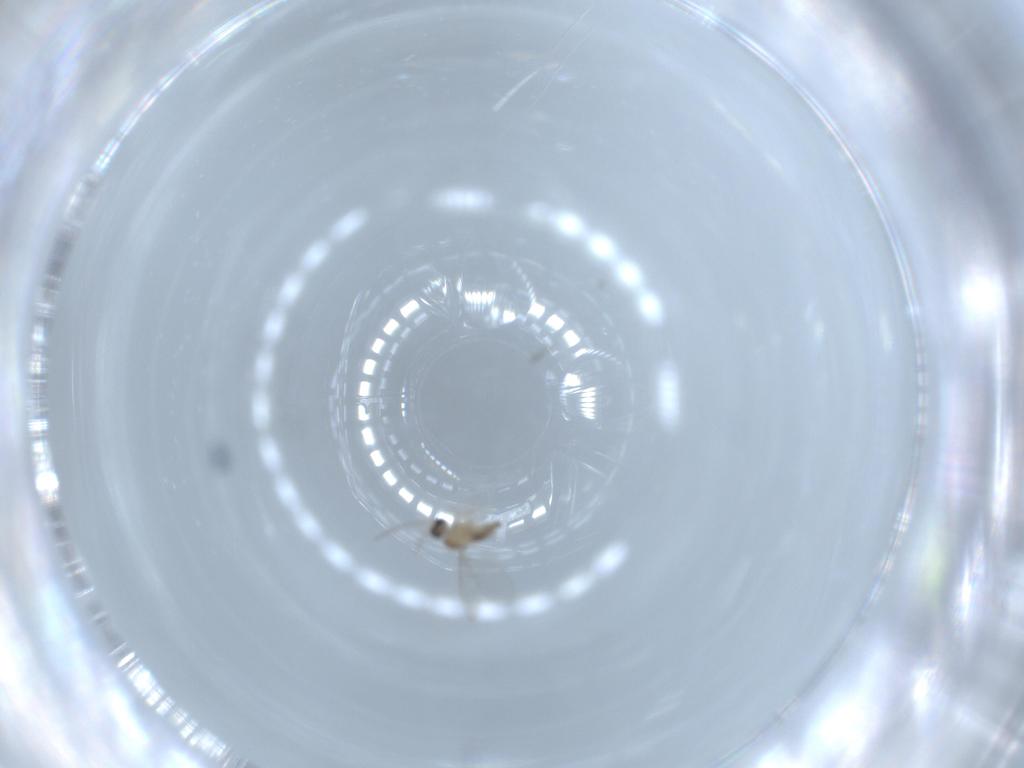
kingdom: Animalia
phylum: Arthropoda
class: Insecta
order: Diptera
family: Cecidomyiidae
